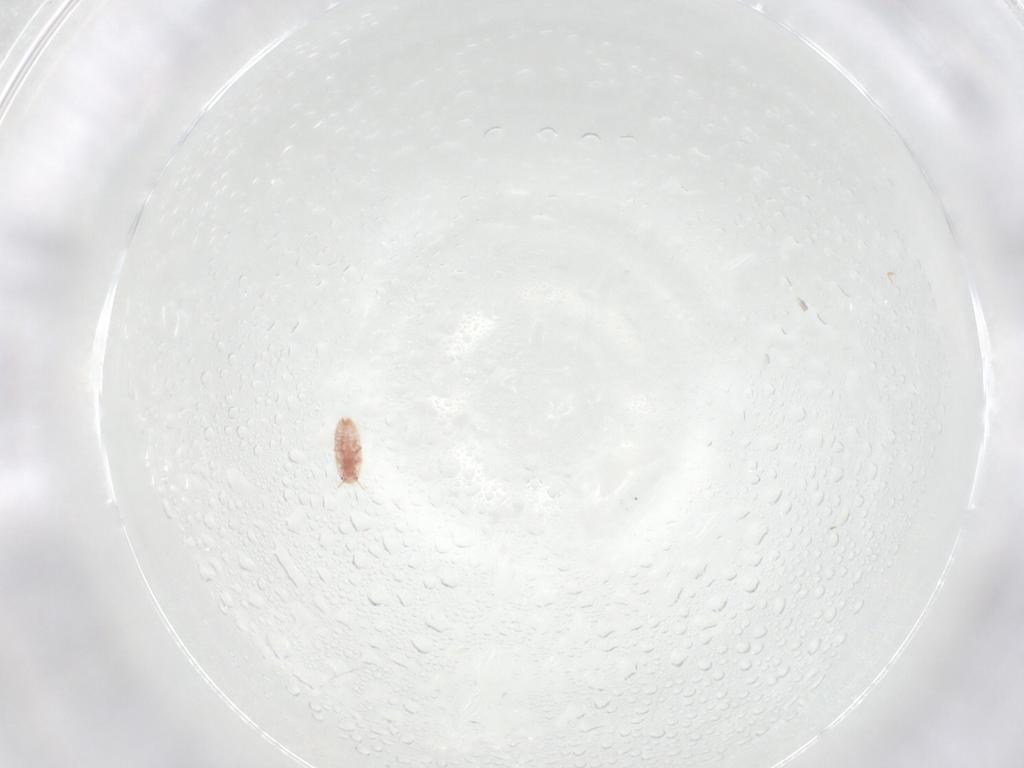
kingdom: Animalia
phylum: Arthropoda
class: Insecta
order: Hemiptera
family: Coccidae
